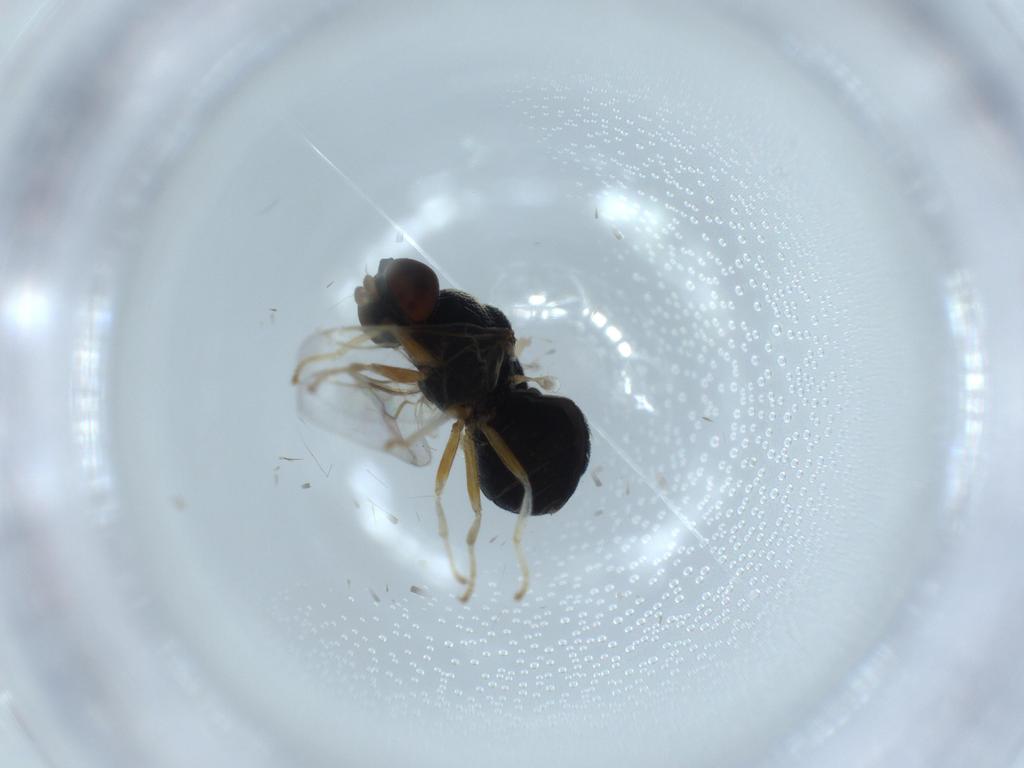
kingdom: Animalia
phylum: Arthropoda
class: Insecta
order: Diptera
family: Stratiomyidae
